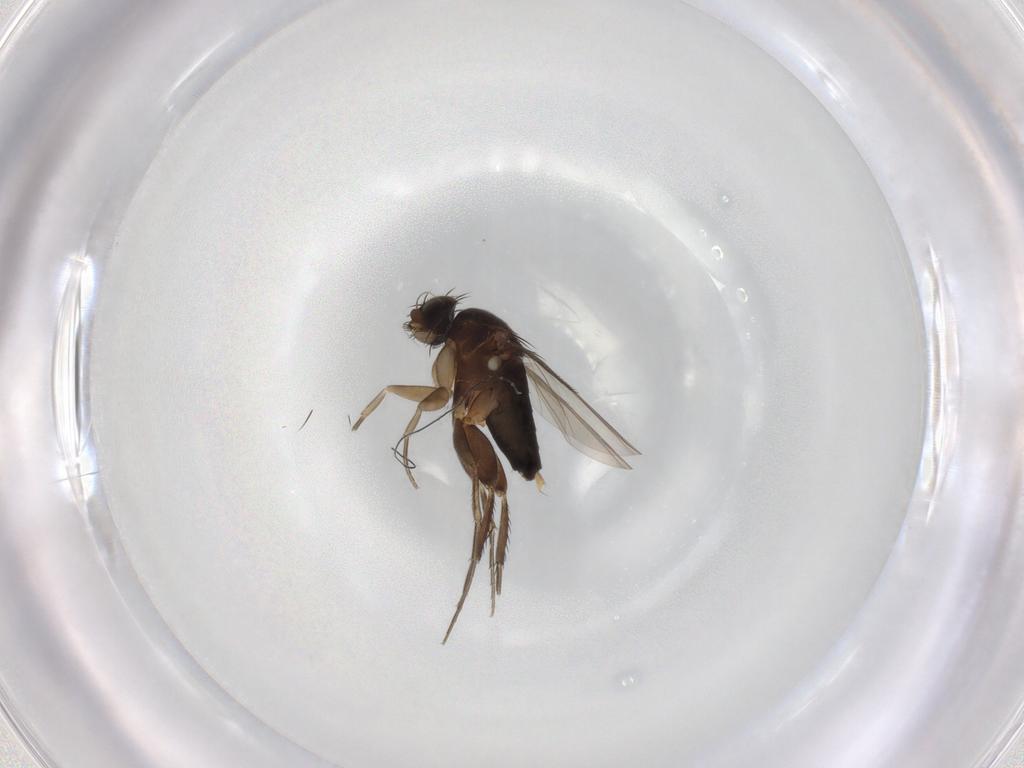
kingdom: Animalia
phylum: Arthropoda
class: Insecta
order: Diptera
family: Phoridae
